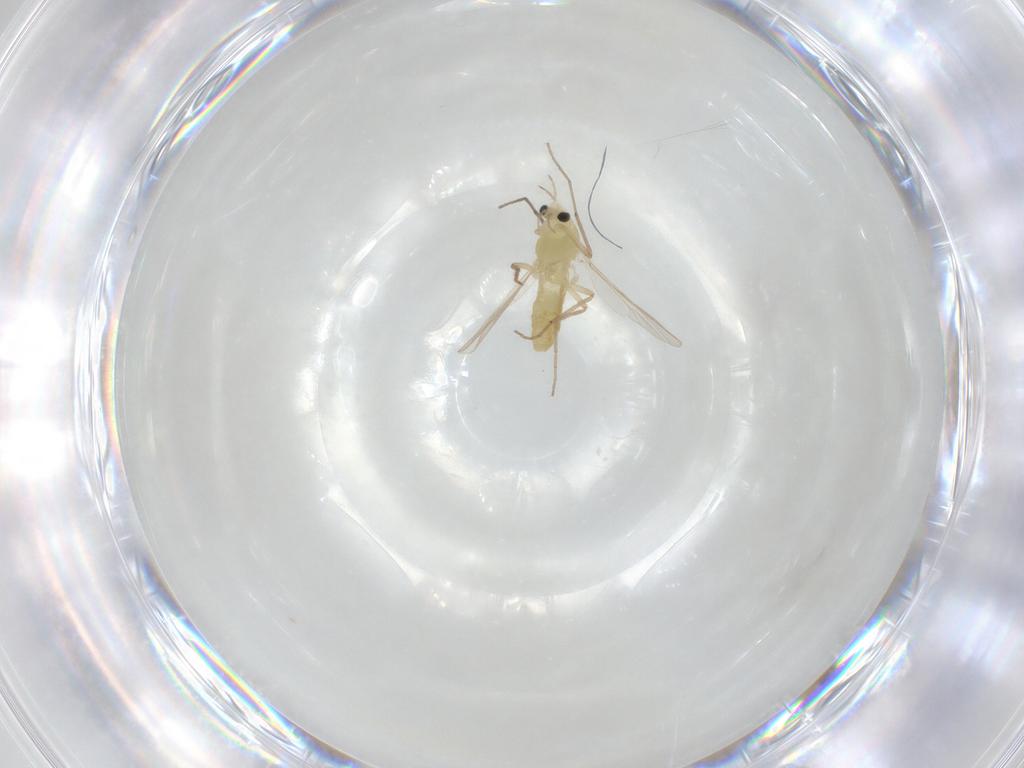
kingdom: Animalia
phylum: Arthropoda
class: Insecta
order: Diptera
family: Chironomidae
